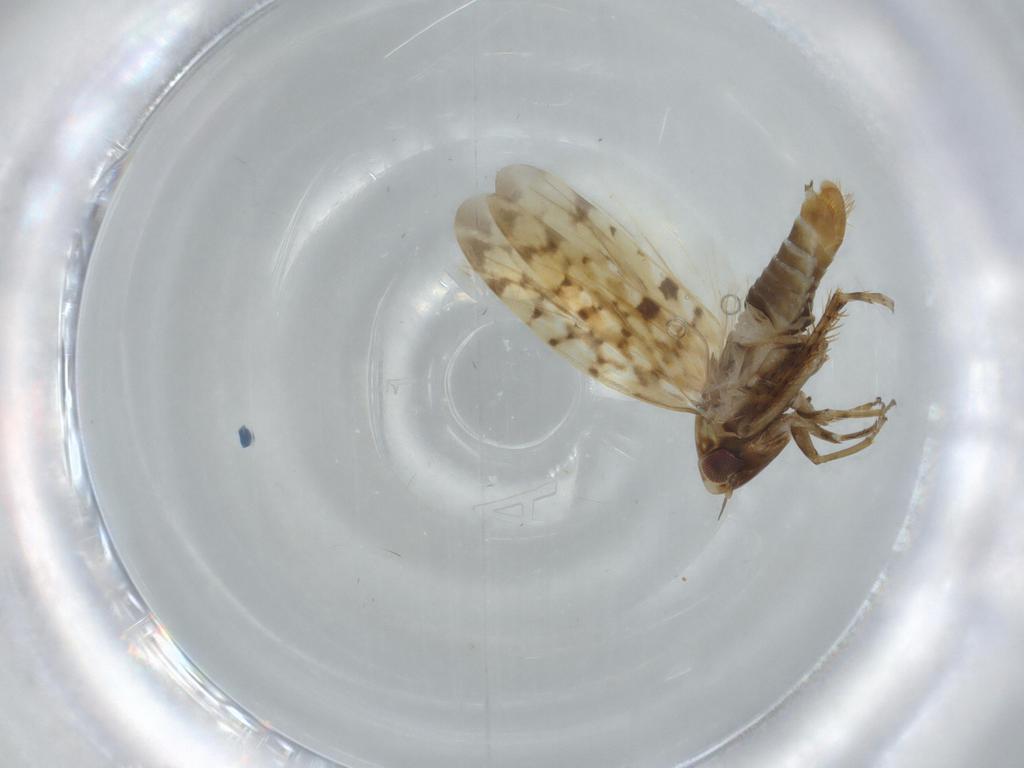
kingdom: Animalia
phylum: Arthropoda
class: Insecta
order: Hemiptera
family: Cicadellidae
